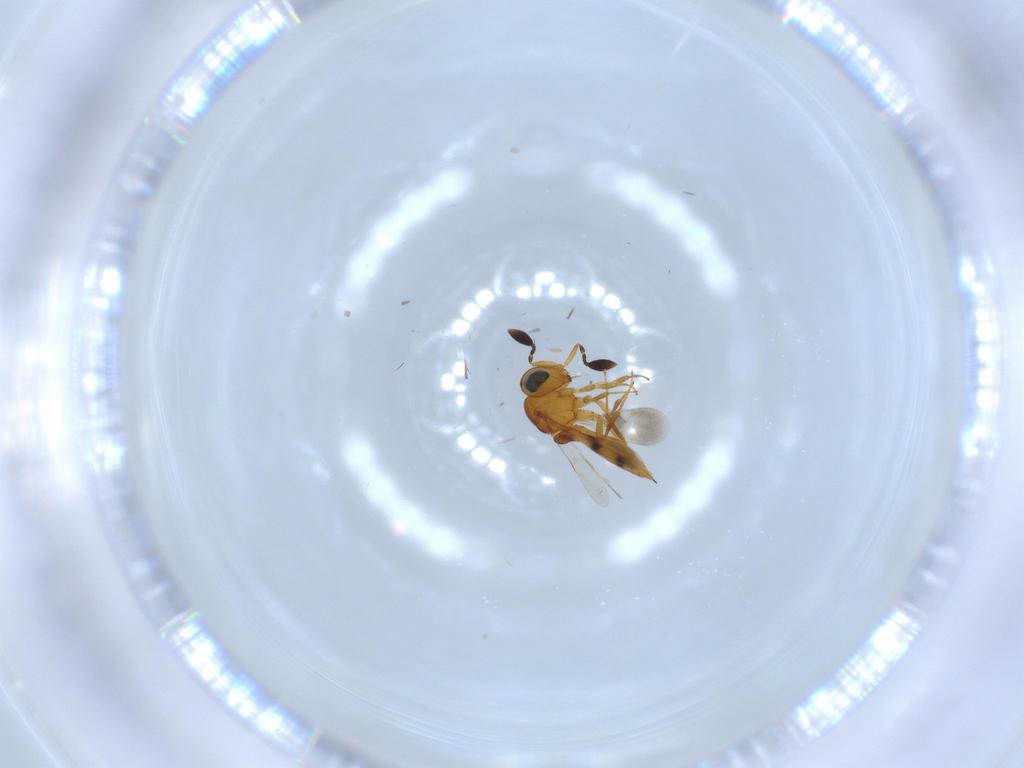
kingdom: Animalia
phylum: Arthropoda
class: Insecta
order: Hymenoptera
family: Scelionidae
